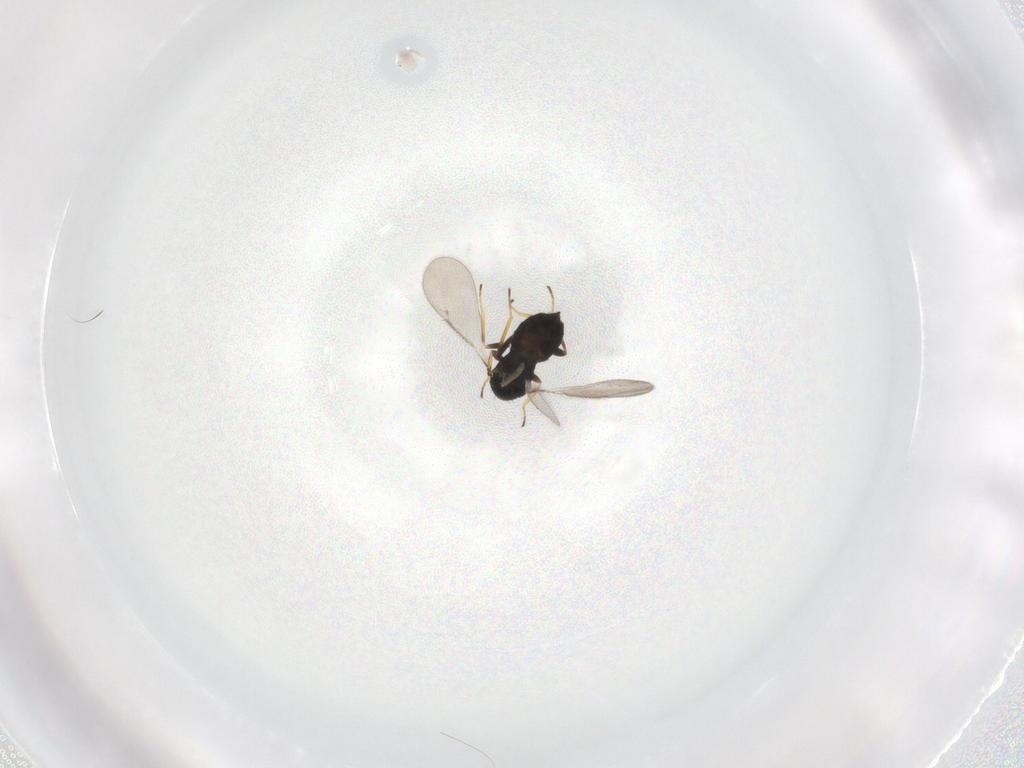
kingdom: Animalia
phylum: Arthropoda
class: Insecta
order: Hymenoptera
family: Eulophidae
